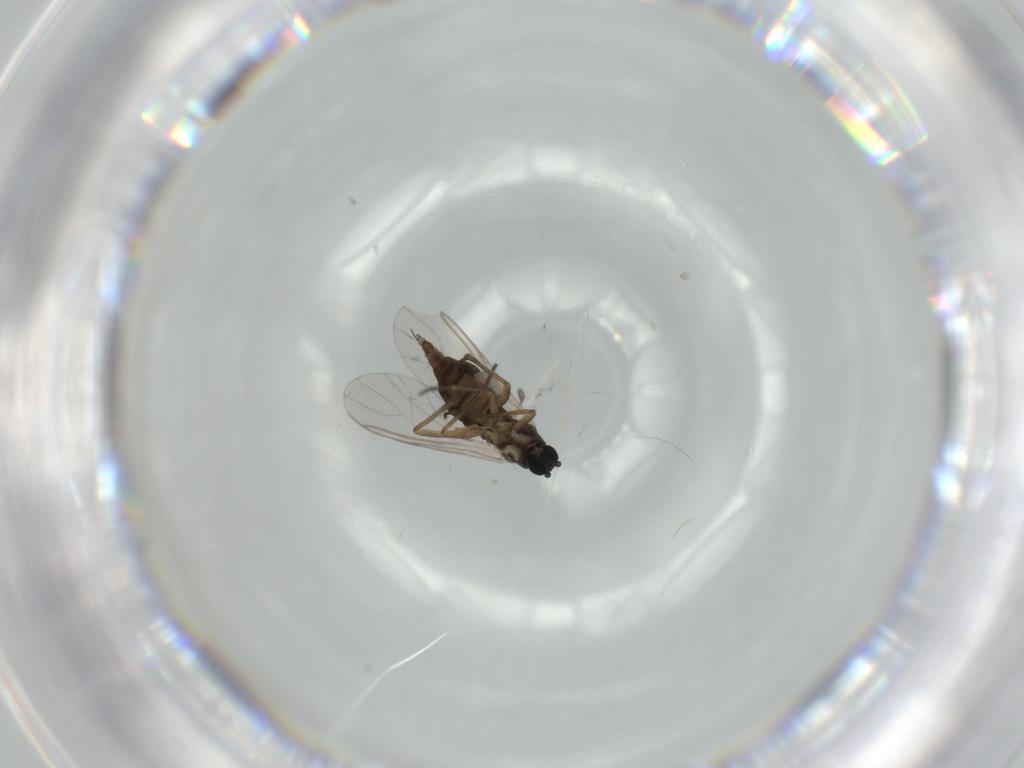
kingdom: Animalia
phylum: Arthropoda
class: Insecta
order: Diptera
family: Sciaridae
